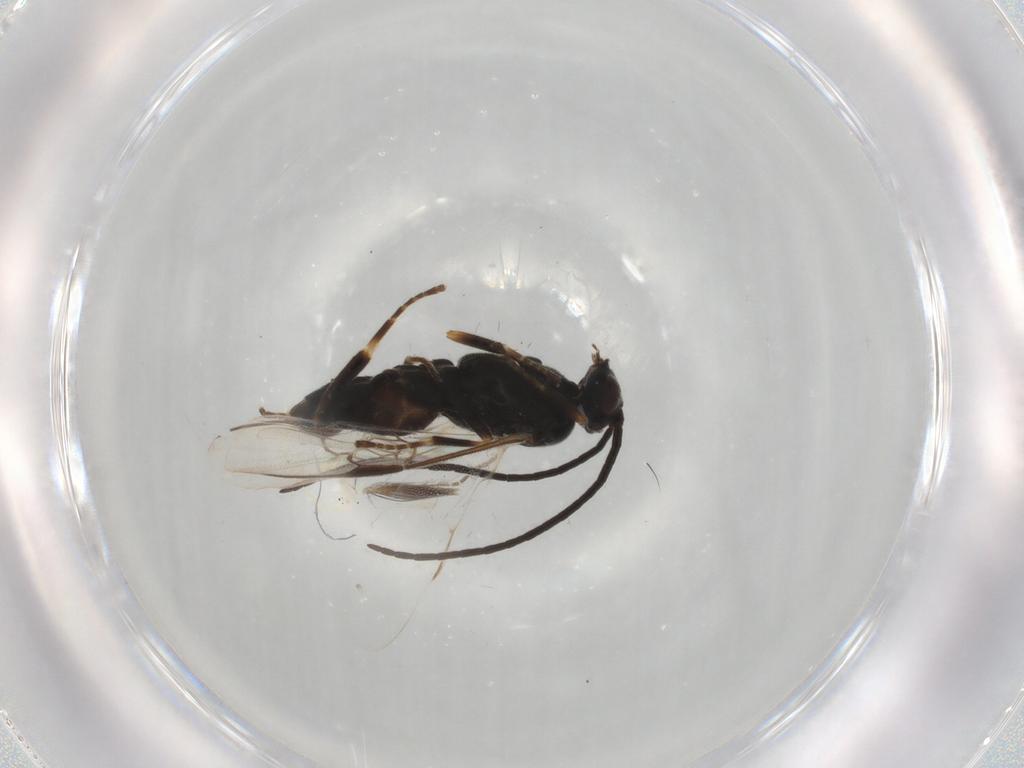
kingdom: Animalia
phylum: Arthropoda
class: Insecta
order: Hymenoptera
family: Braconidae
